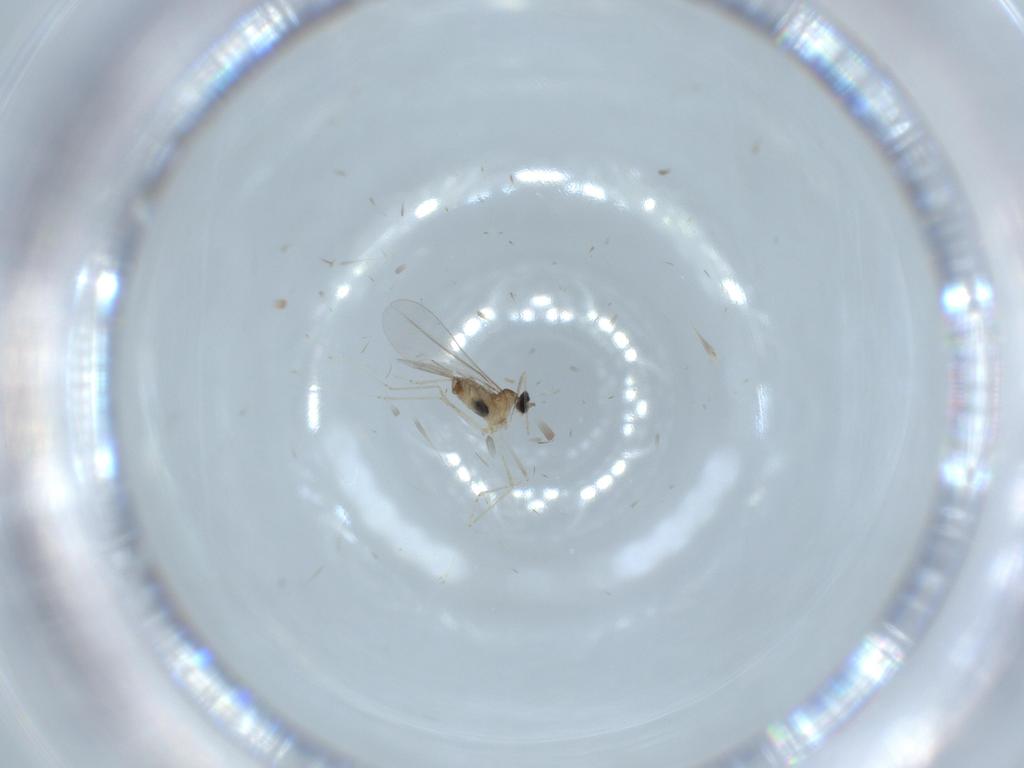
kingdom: Animalia
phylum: Arthropoda
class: Insecta
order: Diptera
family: Cecidomyiidae
